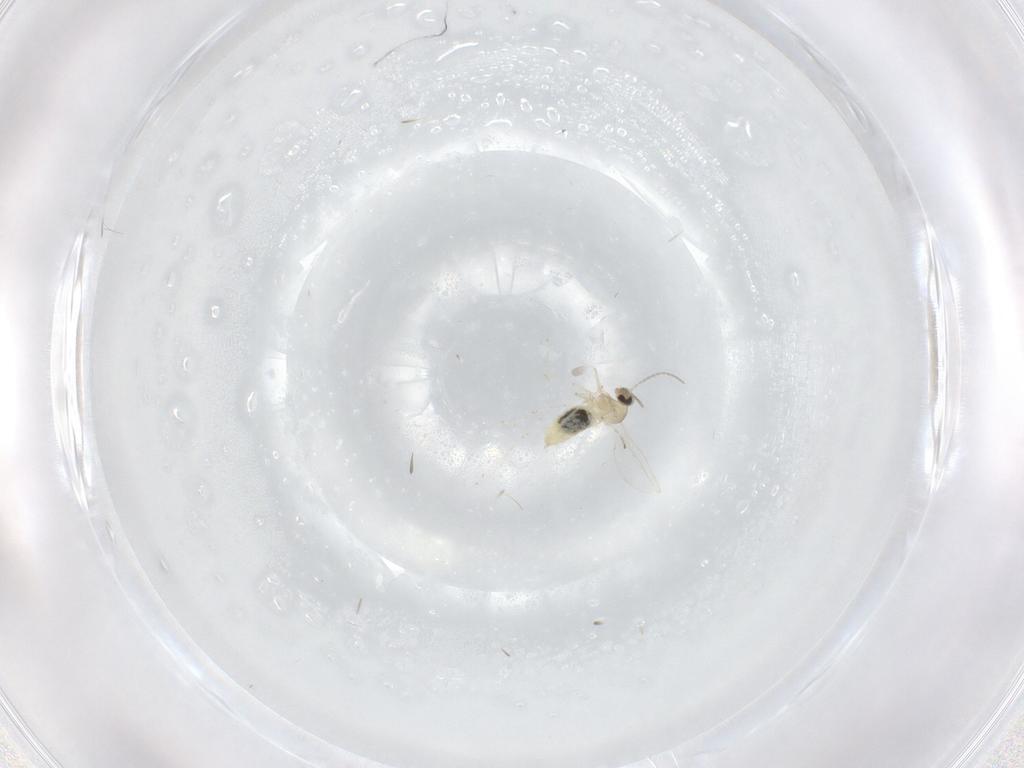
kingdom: Animalia
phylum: Arthropoda
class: Insecta
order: Diptera
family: Cecidomyiidae
